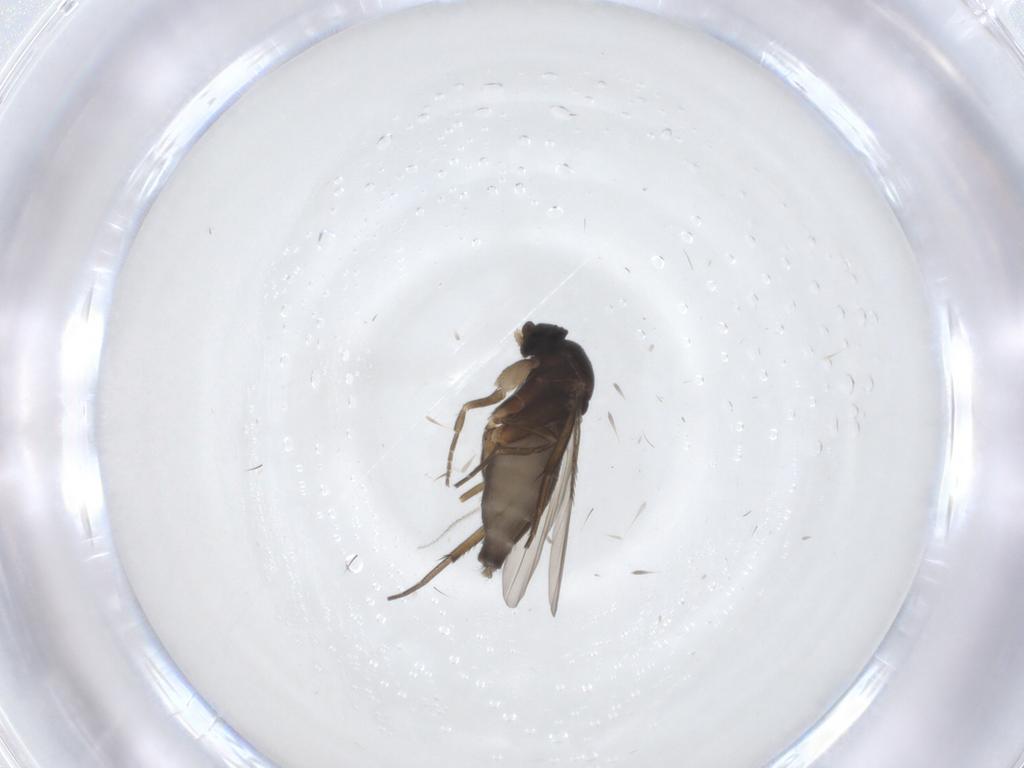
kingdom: Animalia
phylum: Arthropoda
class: Insecta
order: Diptera
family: Phoridae
